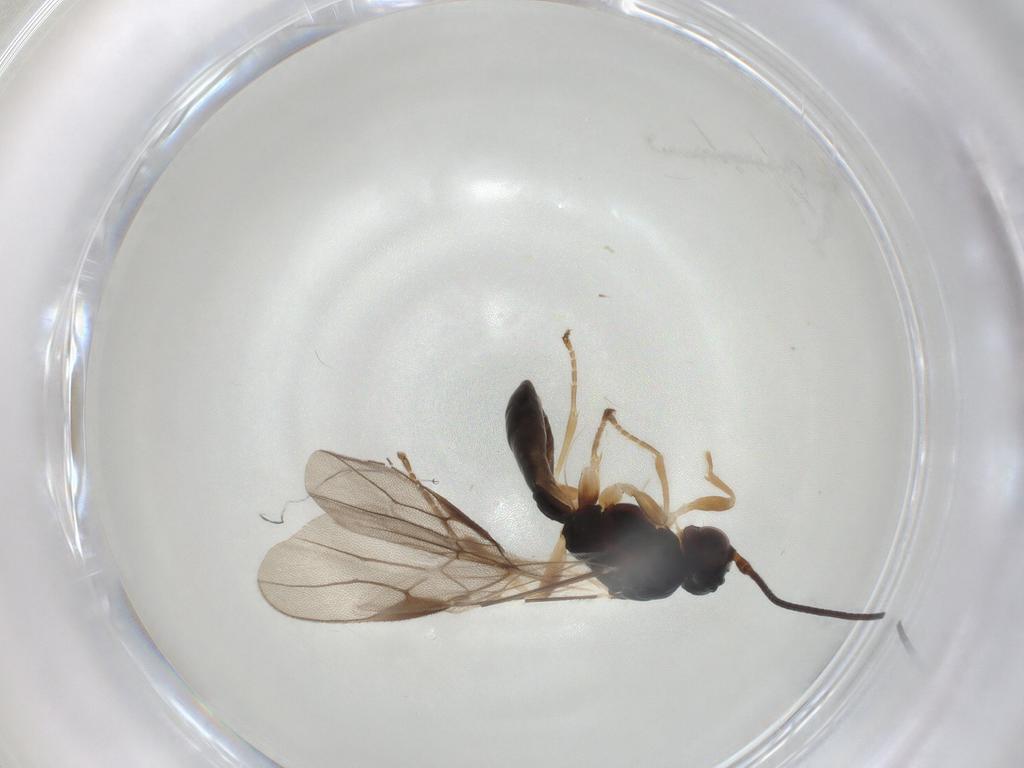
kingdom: Animalia
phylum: Arthropoda
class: Insecta
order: Hymenoptera
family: Braconidae
